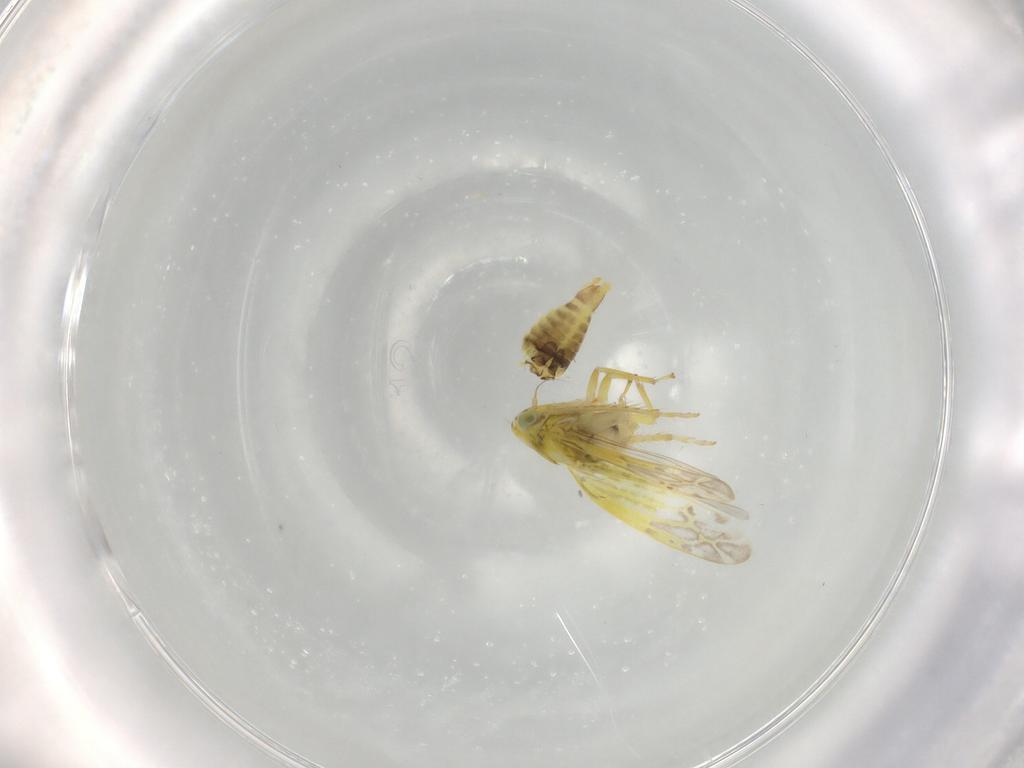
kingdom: Animalia
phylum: Arthropoda
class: Insecta
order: Hemiptera
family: Cicadellidae
